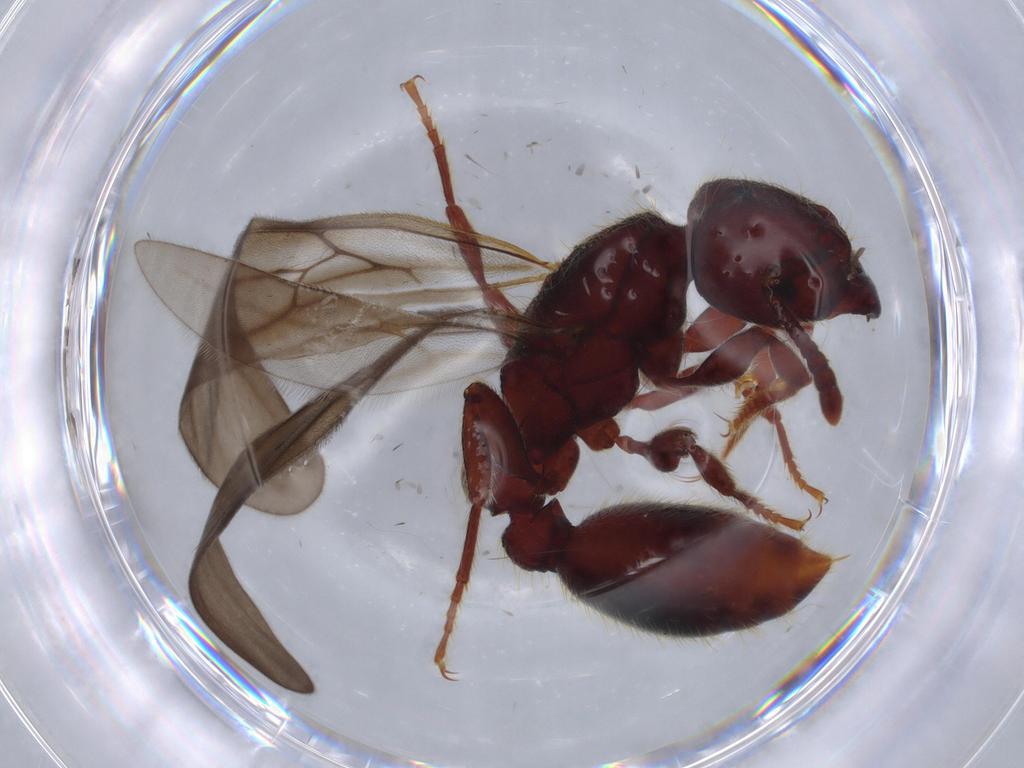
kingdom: Animalia
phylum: Arthropoda
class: Insecta
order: Hymenoptera
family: Formicidae
